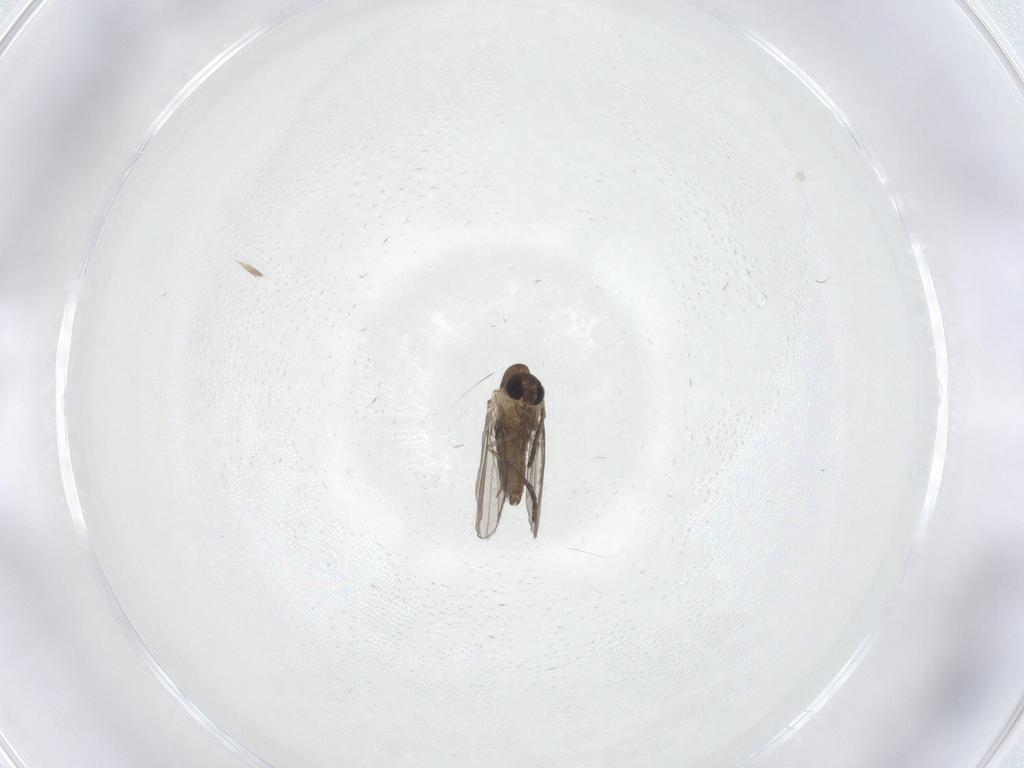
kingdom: Animalia
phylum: Arthropoda
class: Insecta
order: Diptera
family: Psychodidae
